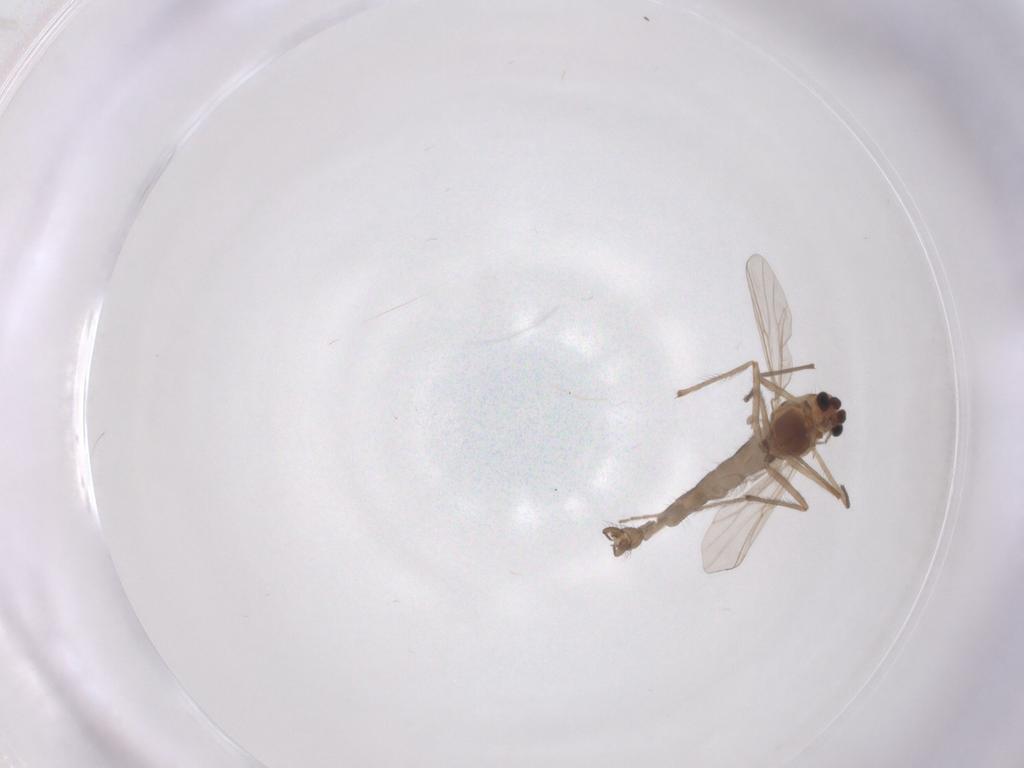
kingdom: Animalia
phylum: Arthropoda
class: Insecta
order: Diptera
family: Chironomidae
